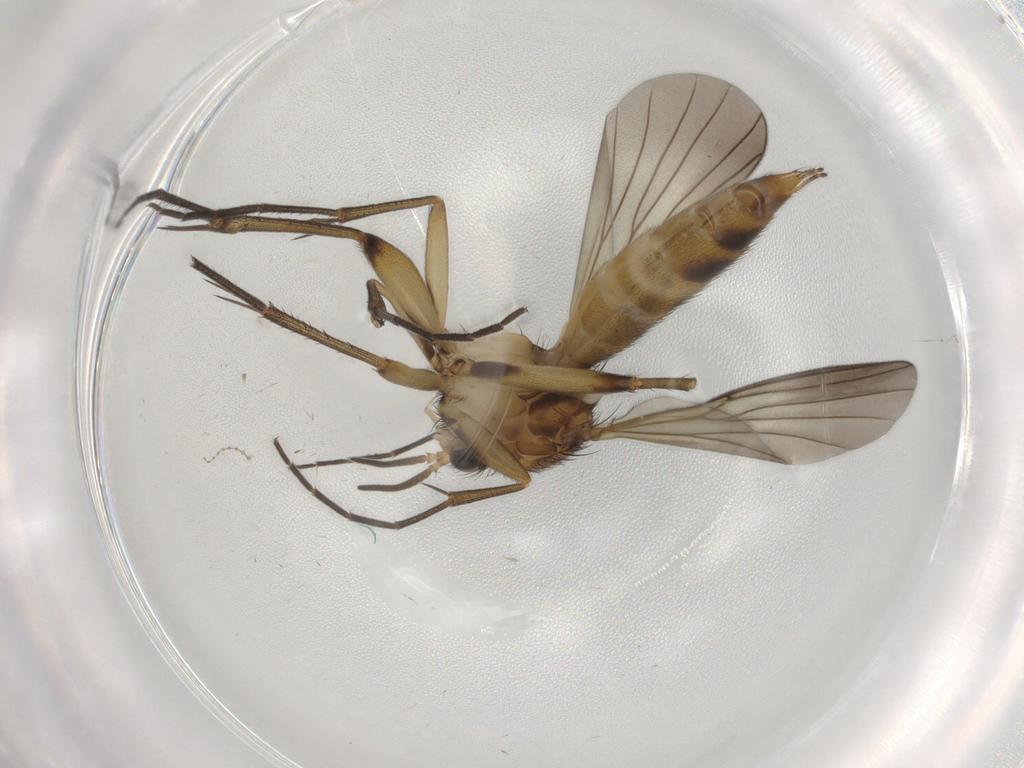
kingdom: Animalia
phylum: Arthropoda
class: Insecta
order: Diptera
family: Mycetophilidae
